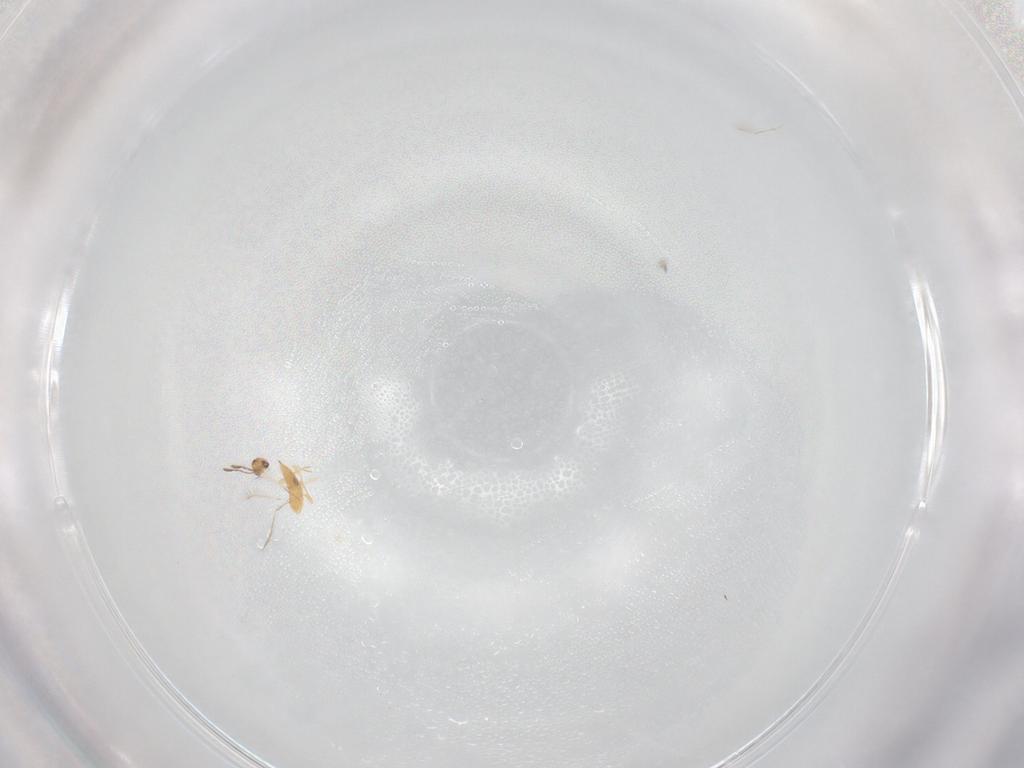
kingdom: Animalia
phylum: Arthropoda
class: Insecta
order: Hymenoptera
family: Mymaridae
